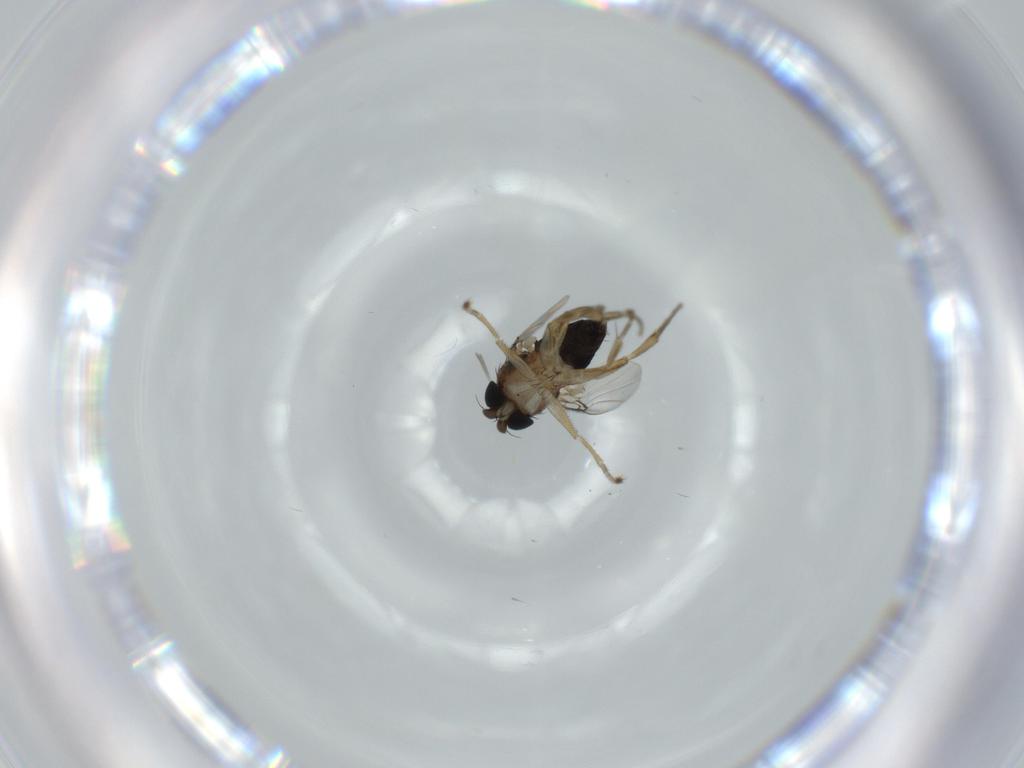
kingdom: Animalia
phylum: Arthropoda
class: Insecta
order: Diptera
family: Phoridae
